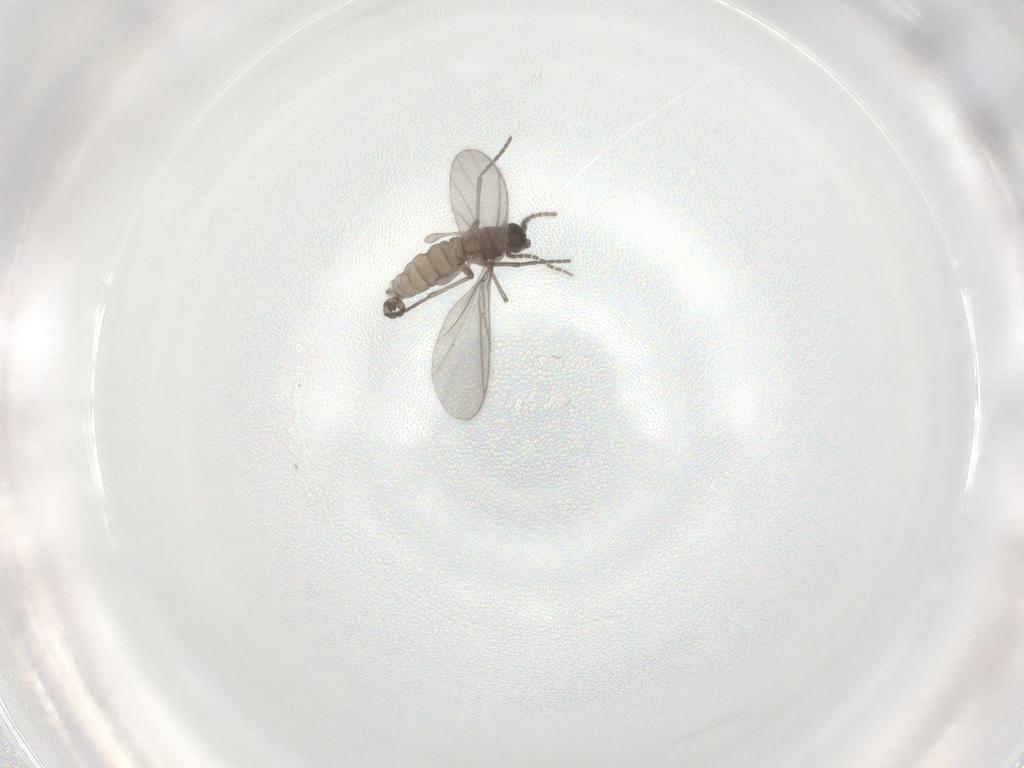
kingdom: Animalia
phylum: Arthropoda
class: Insecta
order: Diptera
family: Sciaridae
